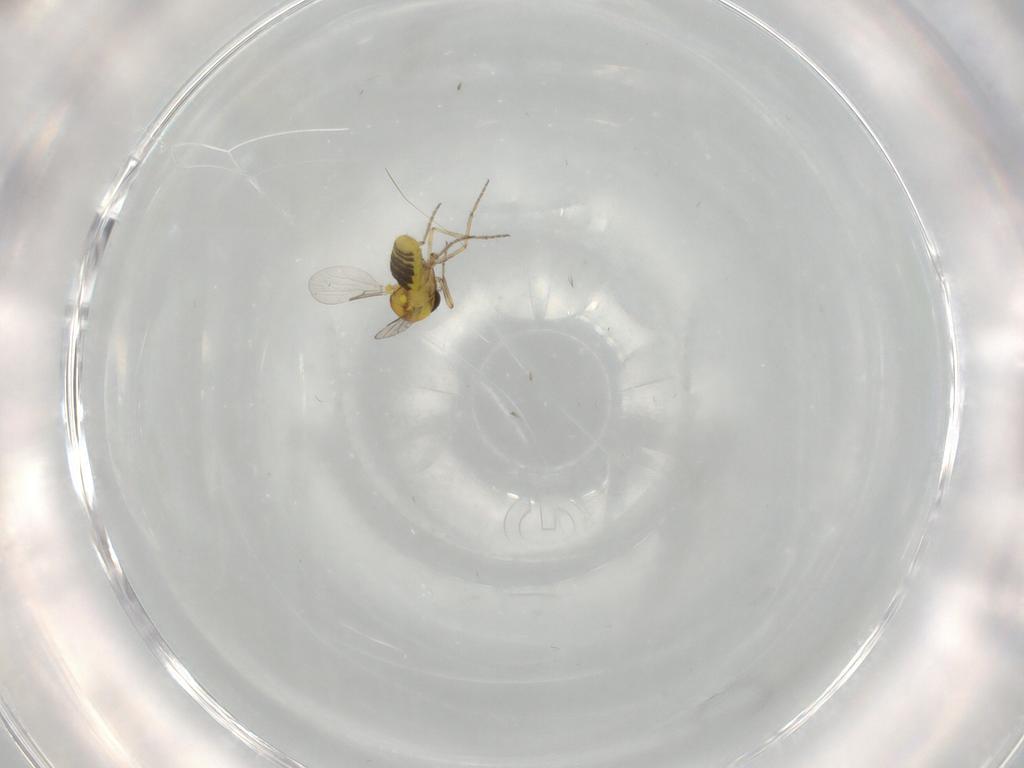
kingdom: Animalia
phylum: Arthropoda
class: Insecta
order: Diptera
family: Ceratopogonidae
